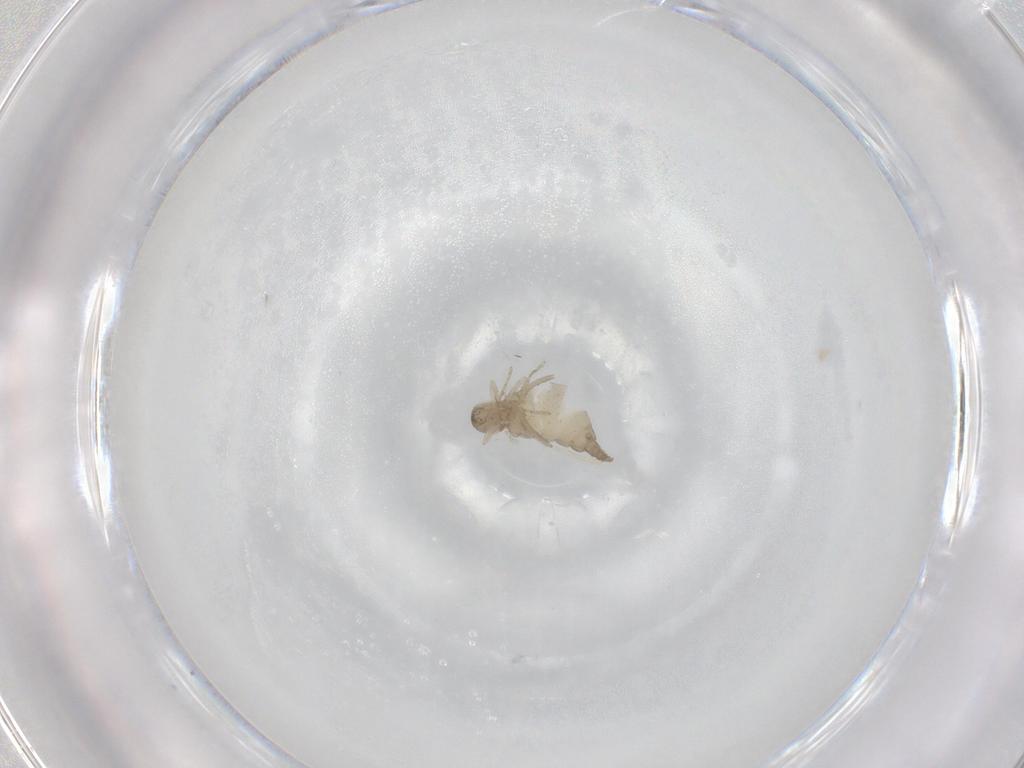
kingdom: Animalia
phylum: Arthropoda
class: Insecta
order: Diptera
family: Cecidomyiidae
